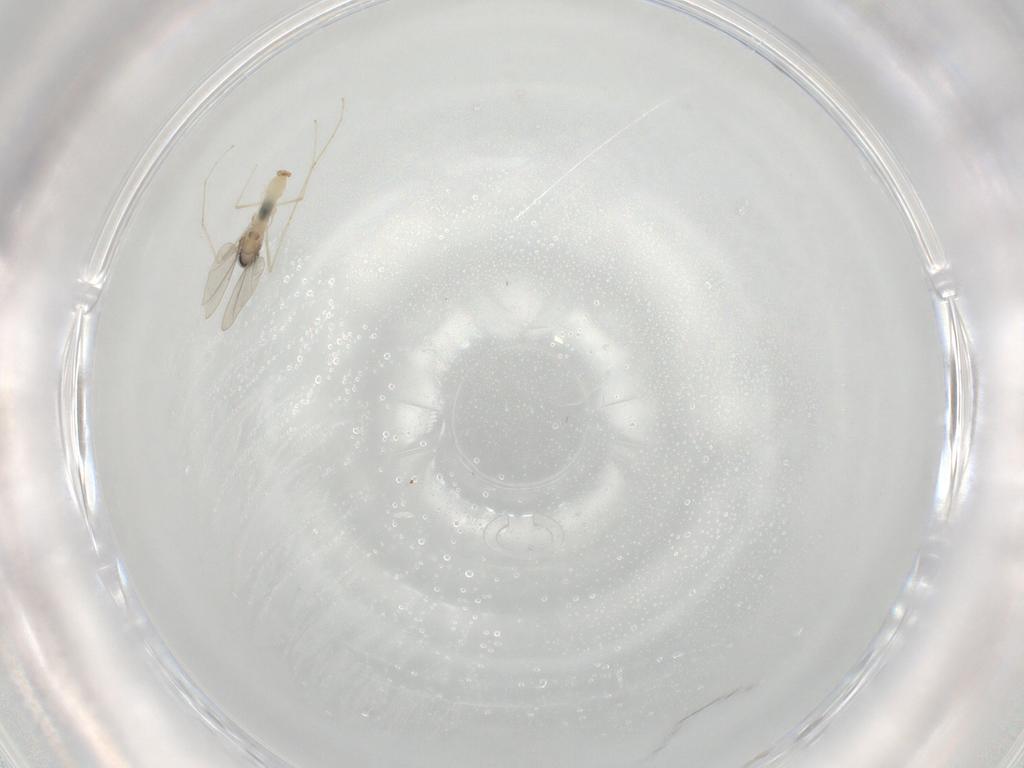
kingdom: Animalia
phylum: Arthropoda
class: Insecta
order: Diptera
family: Cecidomyiidae
